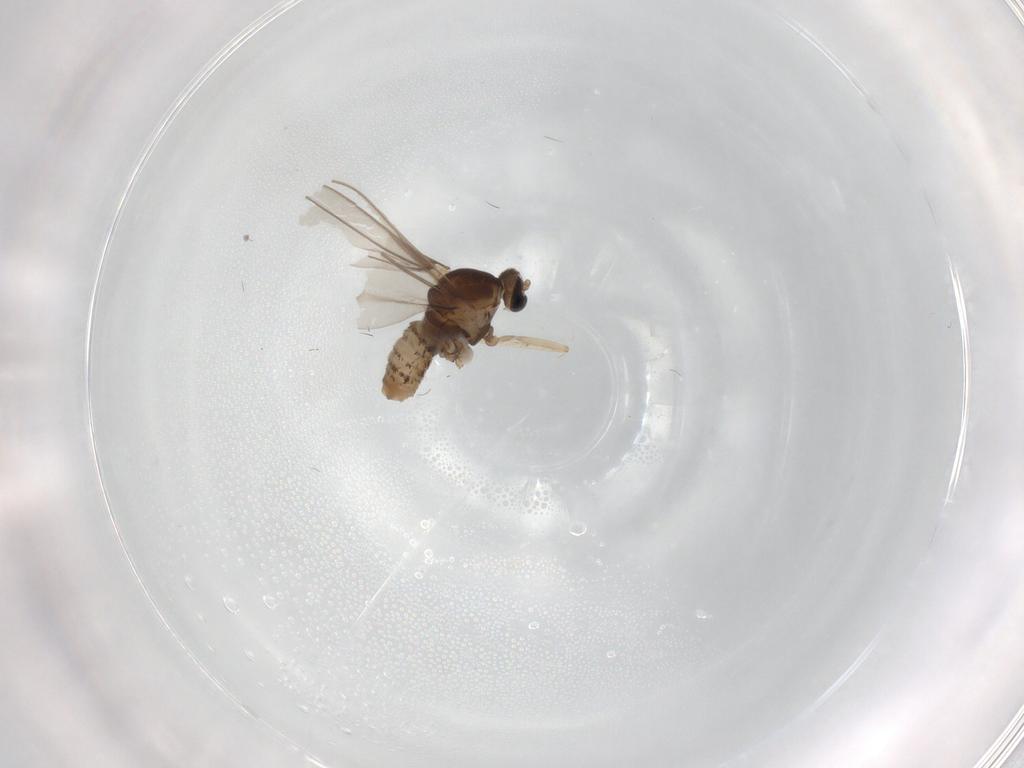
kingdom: Animalia
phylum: Arthropoda
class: Insecta
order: Diptera
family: Cecidomyiidae
